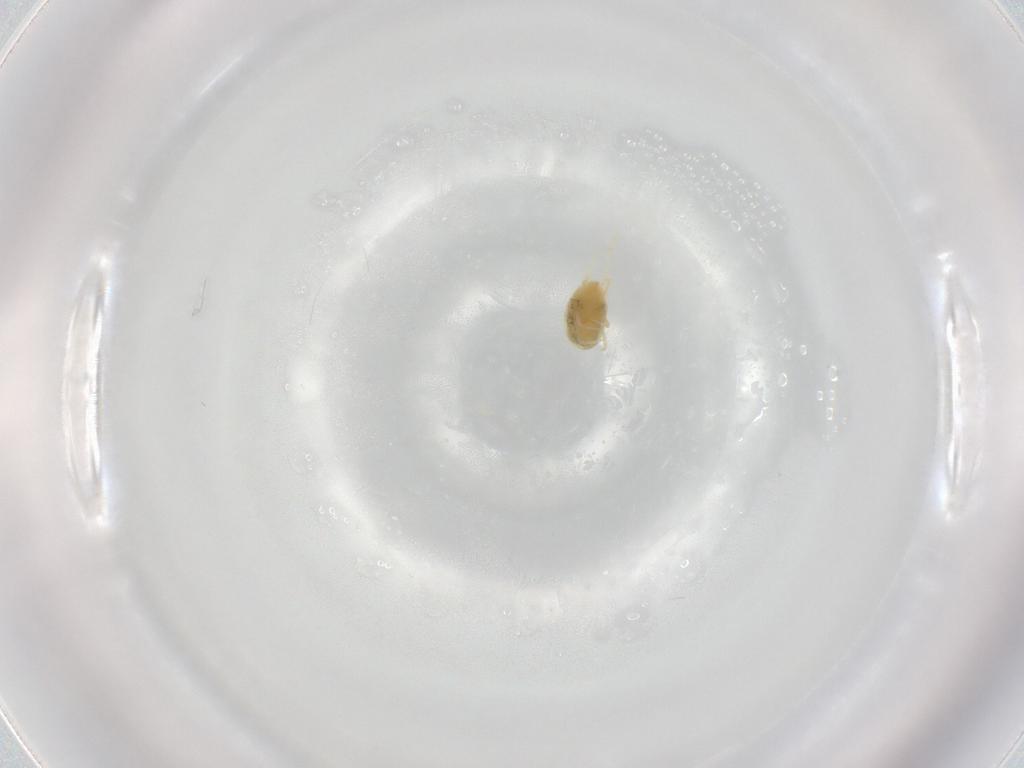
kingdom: Animalia
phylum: Arthropoda
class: Arachnida
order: Trombidiformes
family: Tetranychidae
